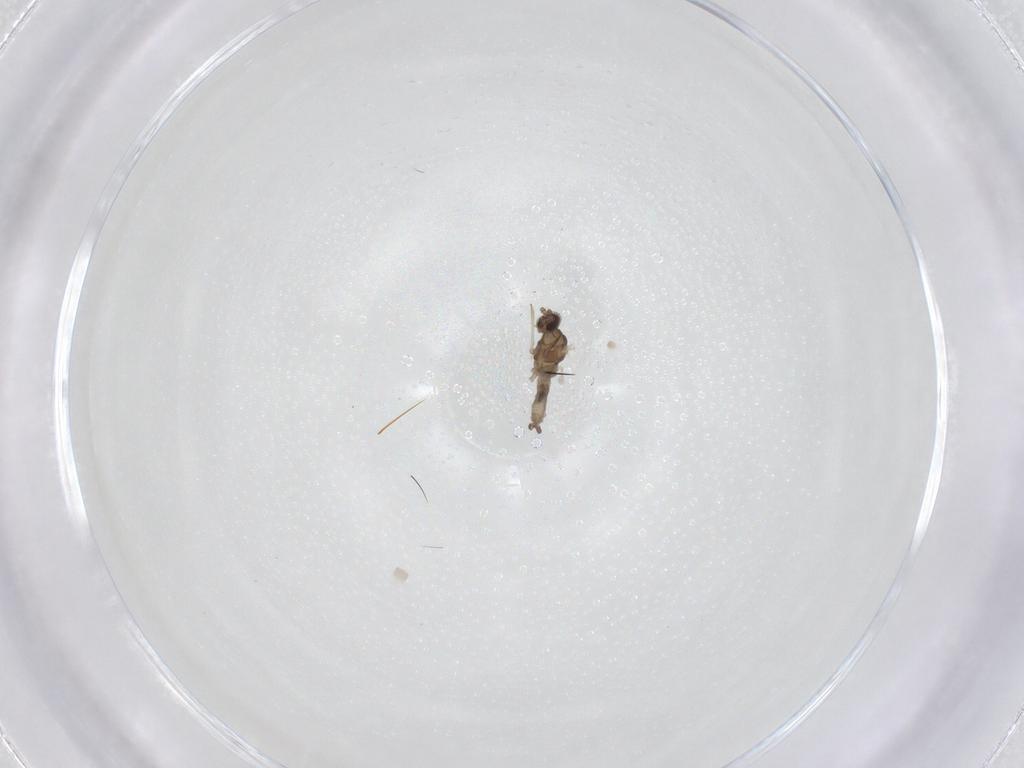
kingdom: Animalia
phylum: Arthropoda
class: Insecta
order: Diptera
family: Cecidomyiidae
